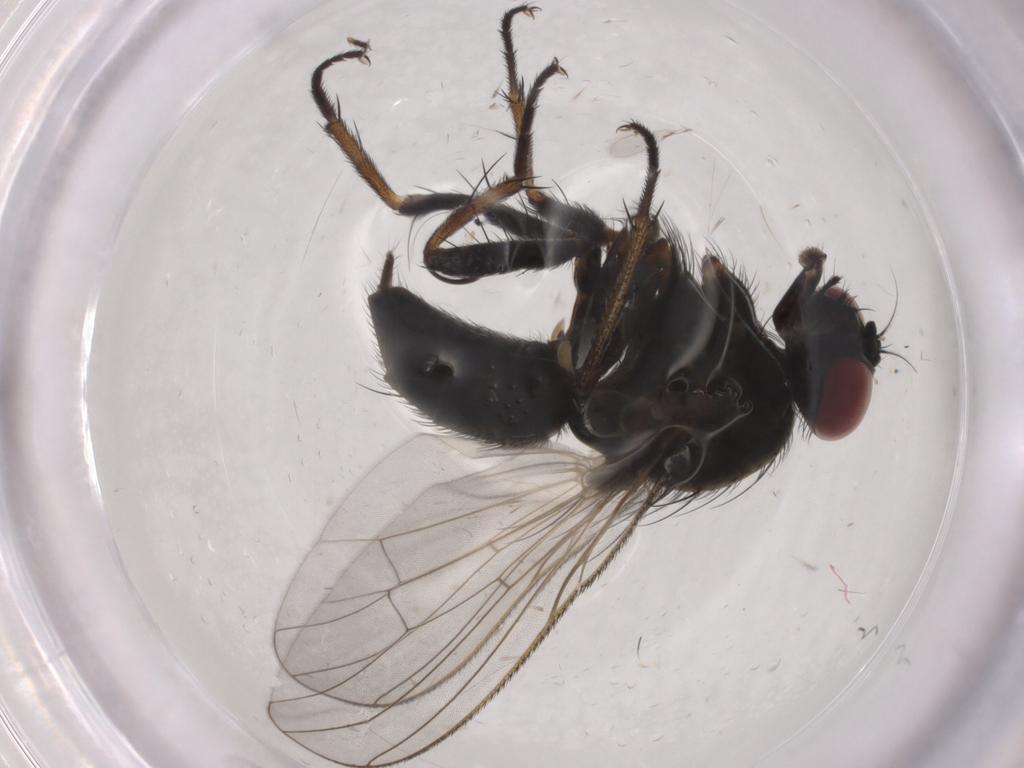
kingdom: Animalia
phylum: Arthropoda
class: Insecta
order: Diptera
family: Muscidae
